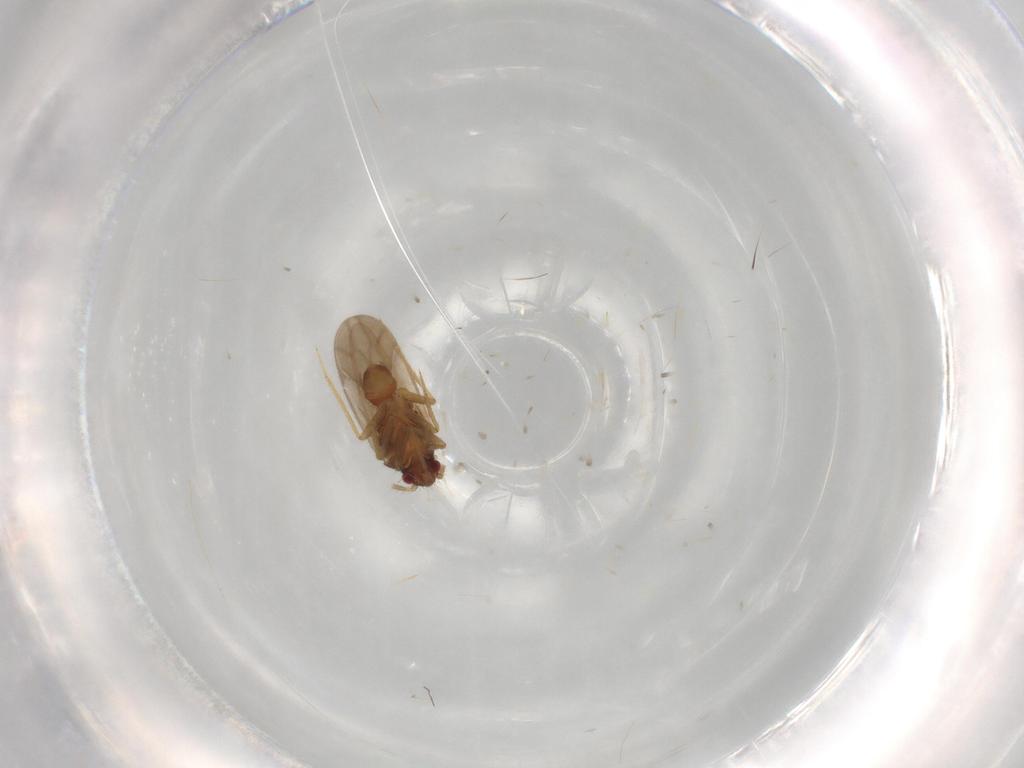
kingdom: Animalia
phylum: Arthropoda
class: Insecta
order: Hemiptera
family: Ceratocombidae
